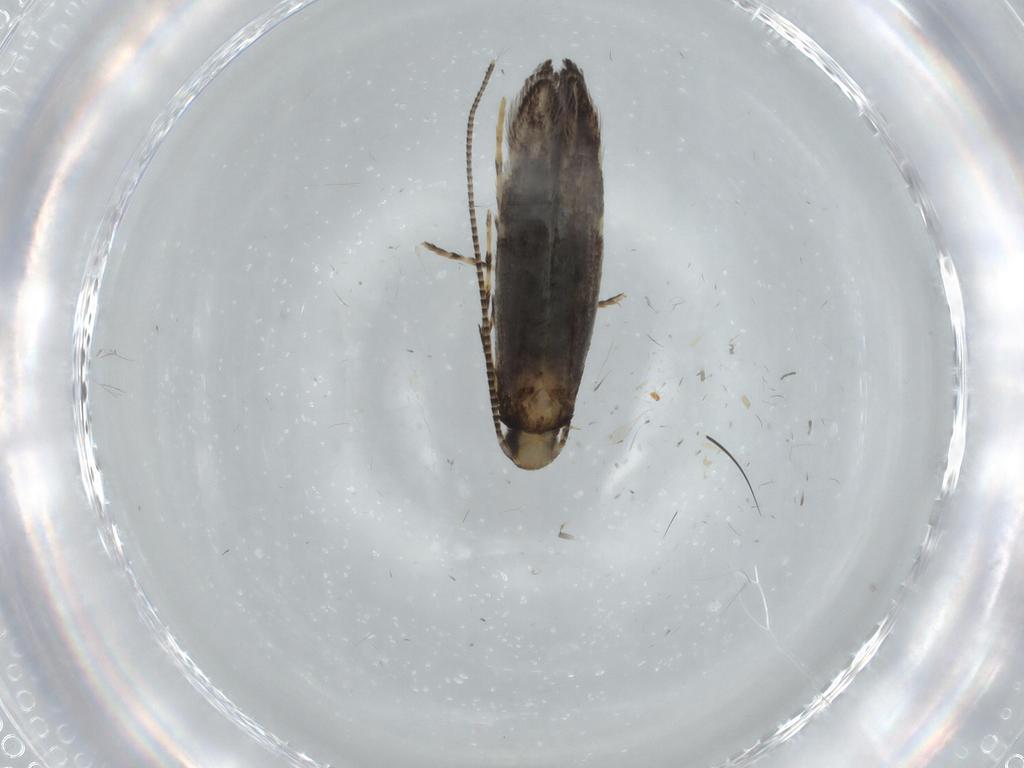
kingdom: Animalia
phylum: Arthropoda
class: Insecta
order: Lepidoptera
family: Gracillariidae
